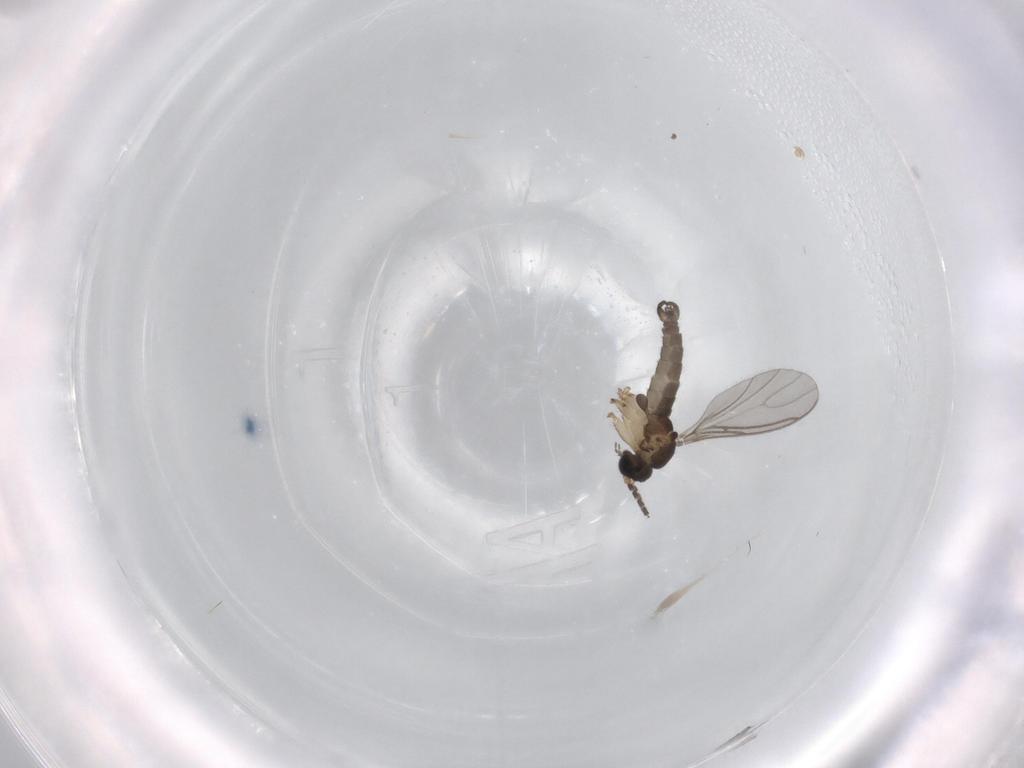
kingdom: Animalia
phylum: Arthropoda
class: Insecta
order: Diptera
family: Sciaridae
